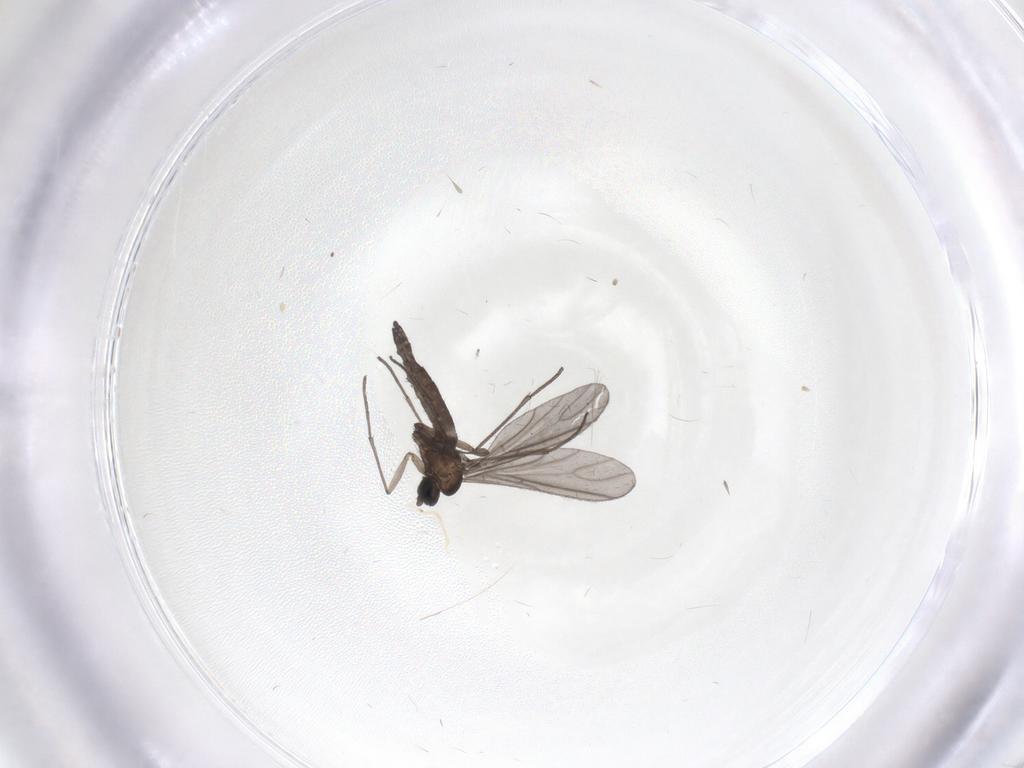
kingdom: Animalia
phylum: Arthropoda
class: Insecta
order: Diptera
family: Sciaridae
